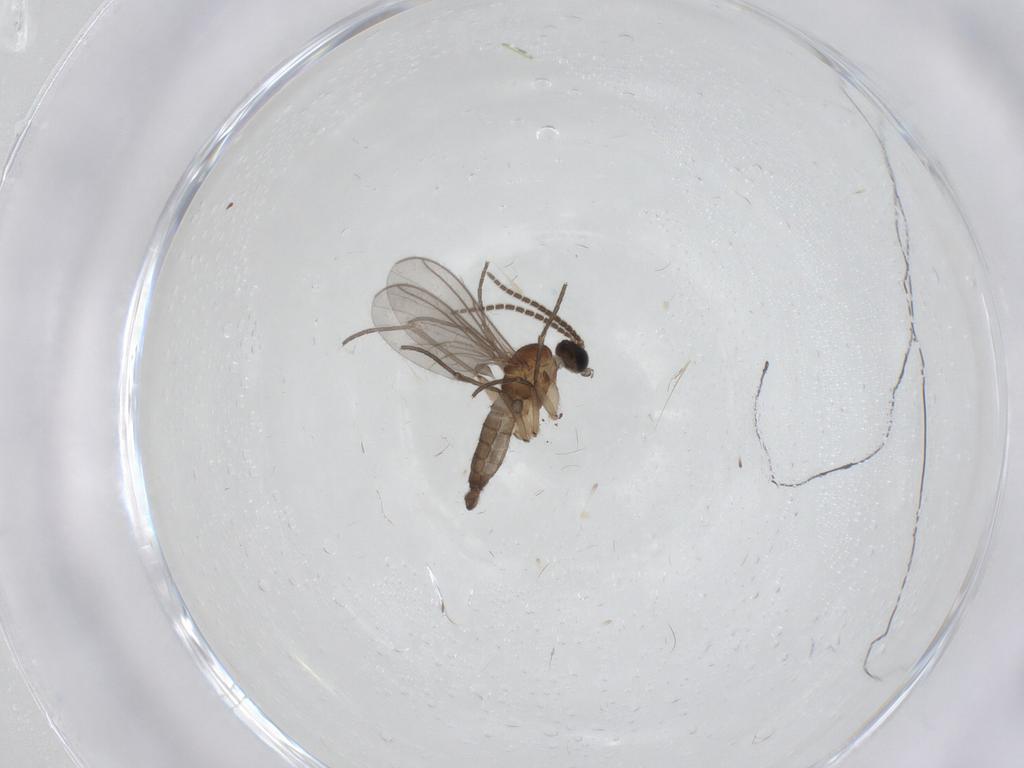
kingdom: Animalia
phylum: Arthropoda
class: Insecta
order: Diptera
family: Sciaridae
